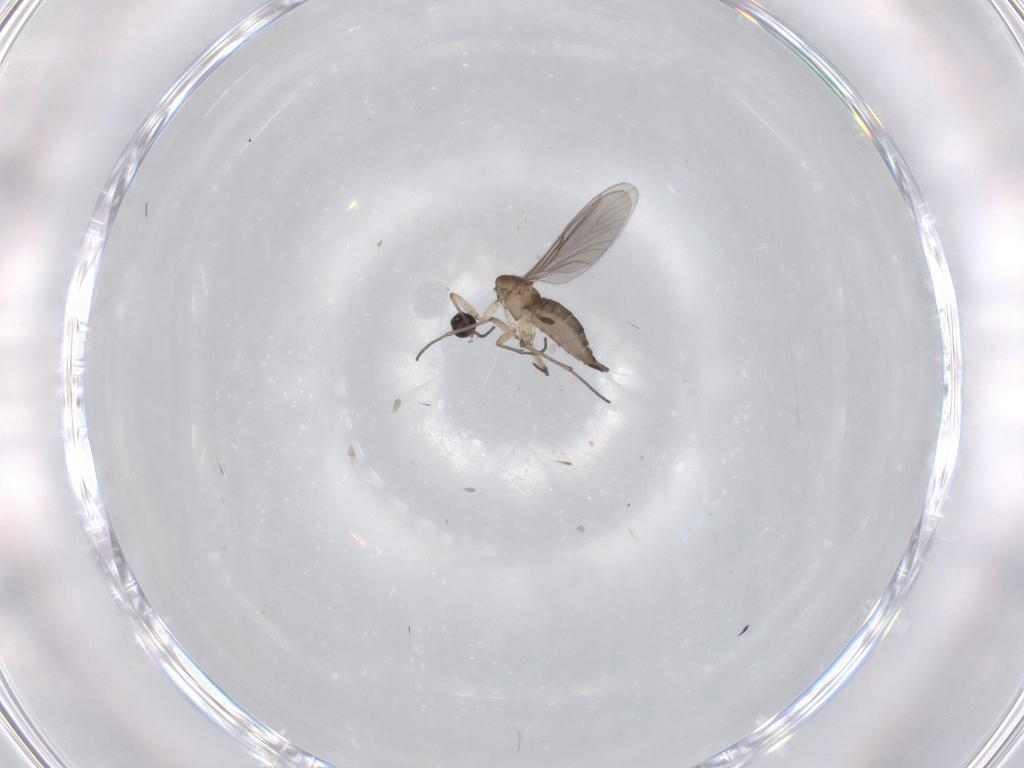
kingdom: Animalia
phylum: Arthropoda
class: Insecta
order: Diptera
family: Sciaridae
